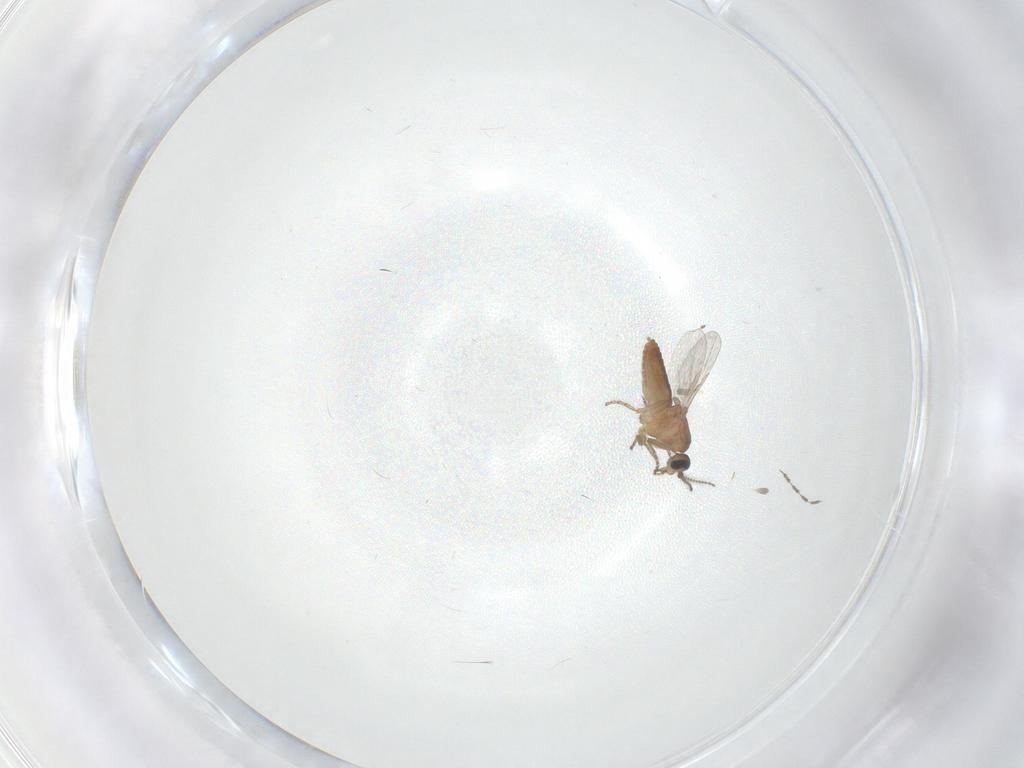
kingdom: Animalia
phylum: Arthropoda
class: Insecta
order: Diptera
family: Ceratopogonidae
